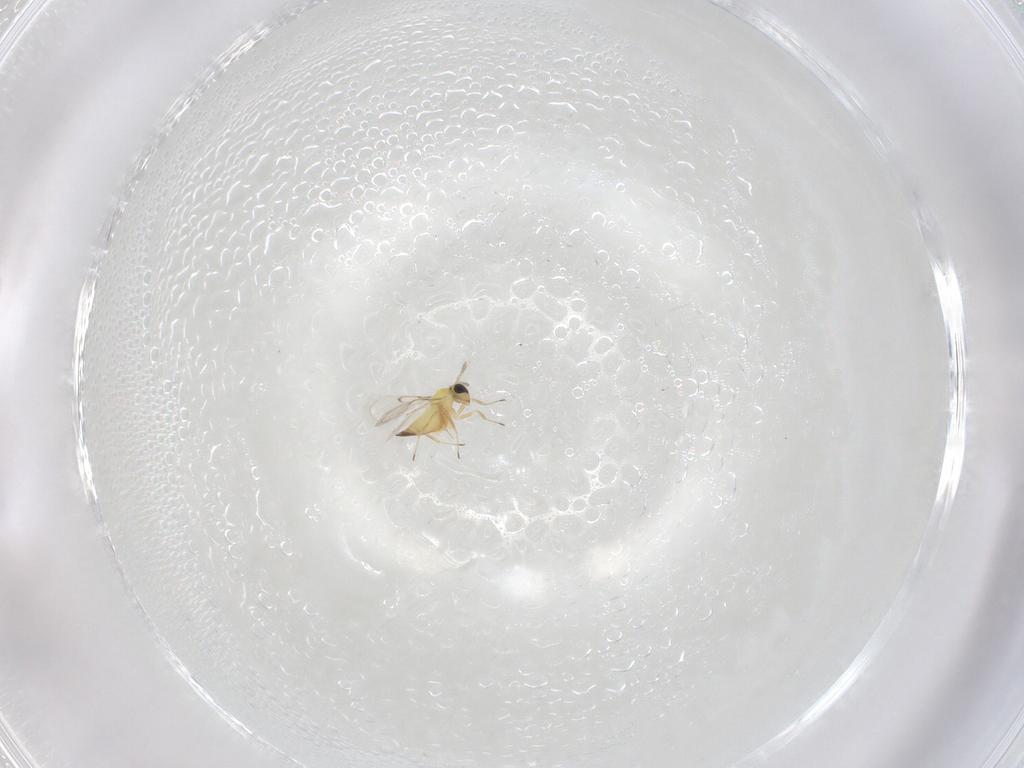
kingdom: Animalia
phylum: Arthropoda
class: Insecta
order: Hymenoptera
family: Trichogrammatidae
